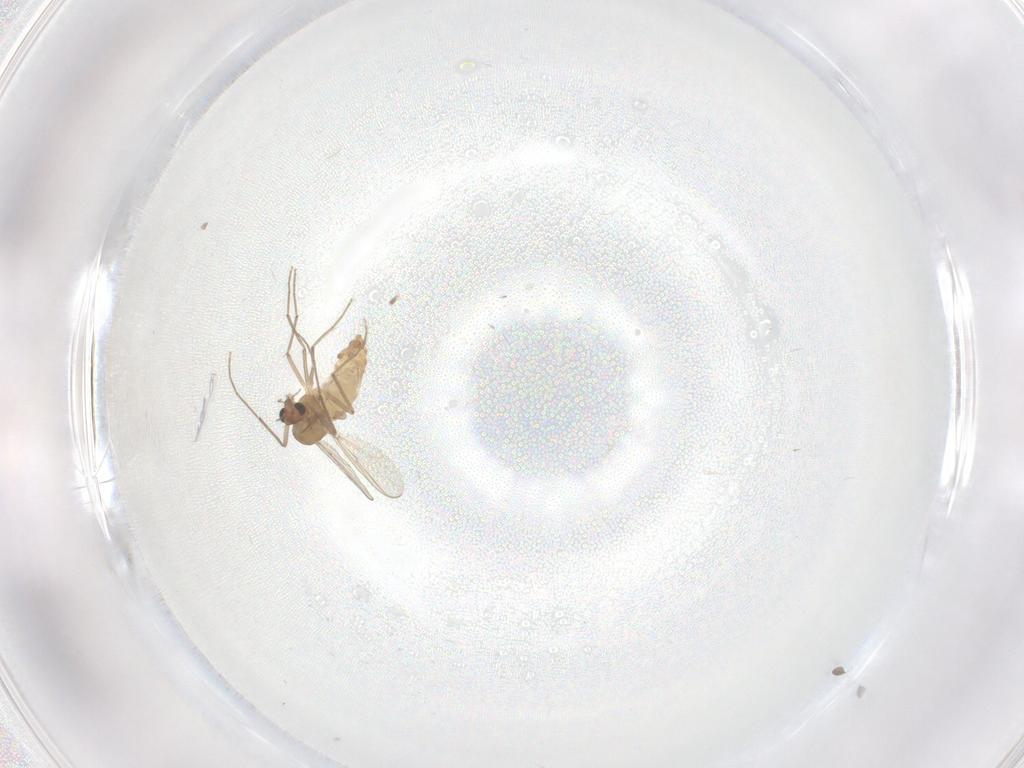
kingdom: Animalia
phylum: Arthropoda
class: Insecta
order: Diptera
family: Chironomidae
